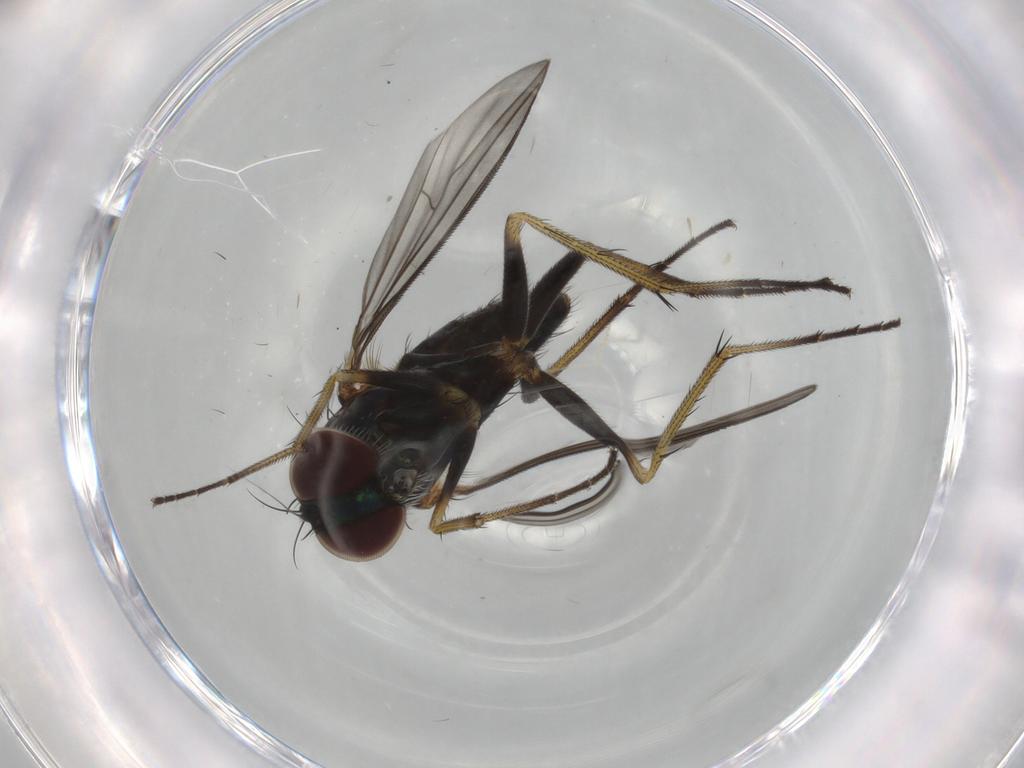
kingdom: Animalia
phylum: Arthropoda
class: Insecta
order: Diptera
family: Dolichopodidae
